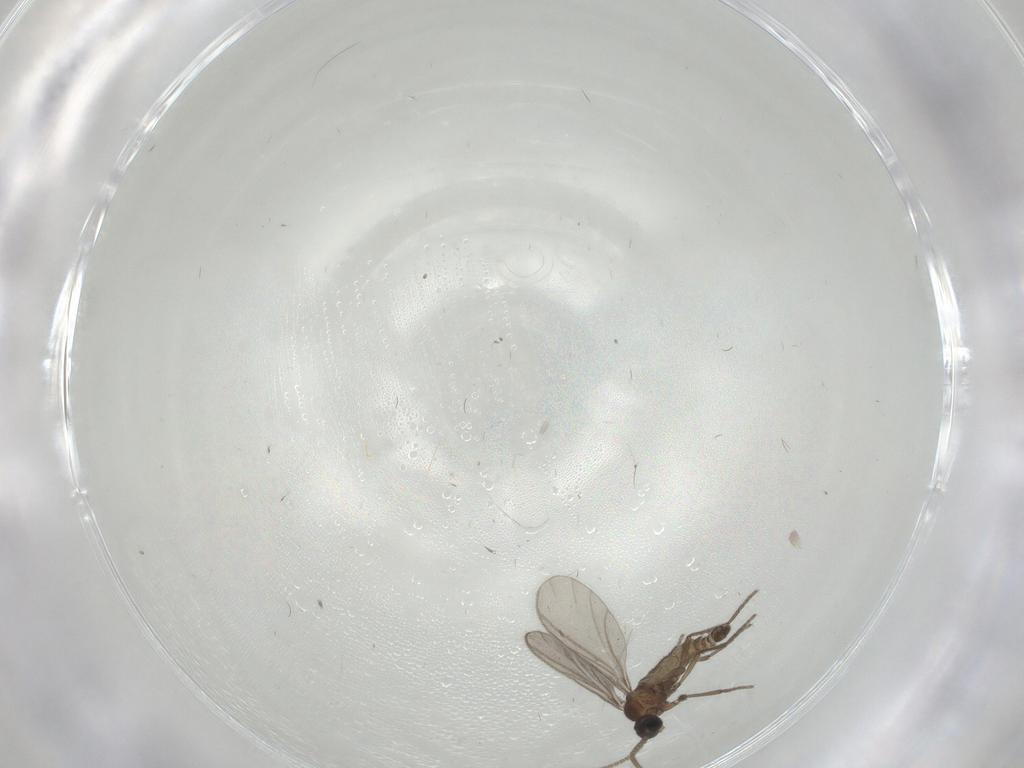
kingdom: Animalia
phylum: Arthropoda
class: Insecta
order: Diptera
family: Sciaridae
